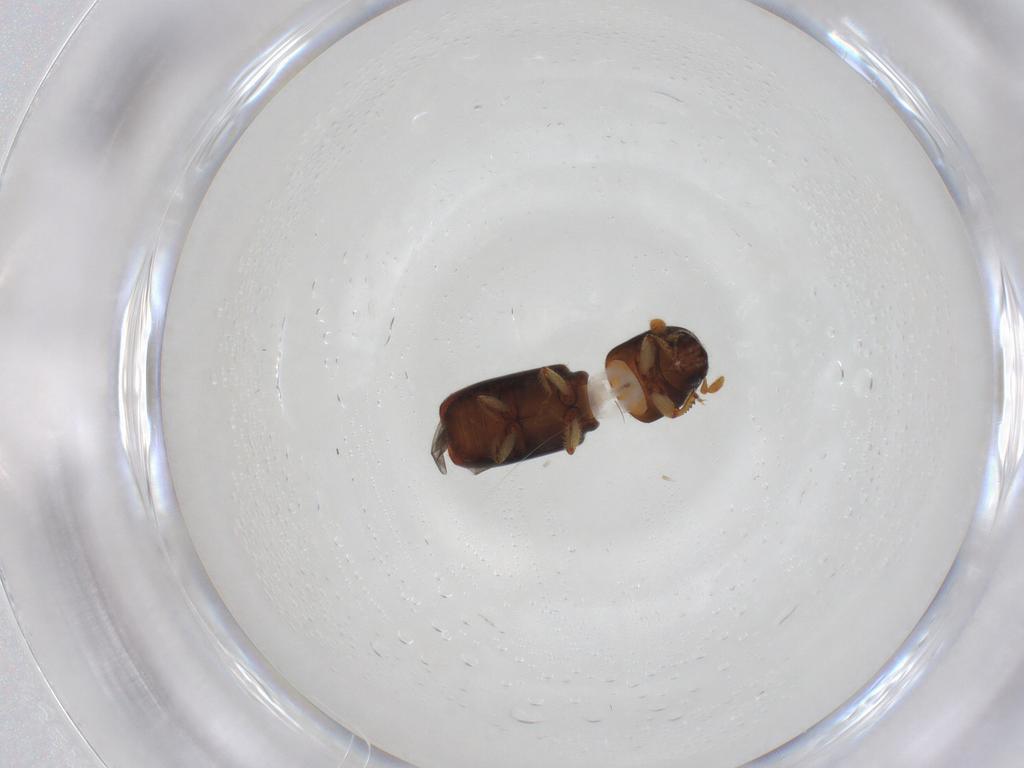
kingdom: Animalia
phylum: Arthropoda
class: Insecta
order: Coleoptera
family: Curculionidae
